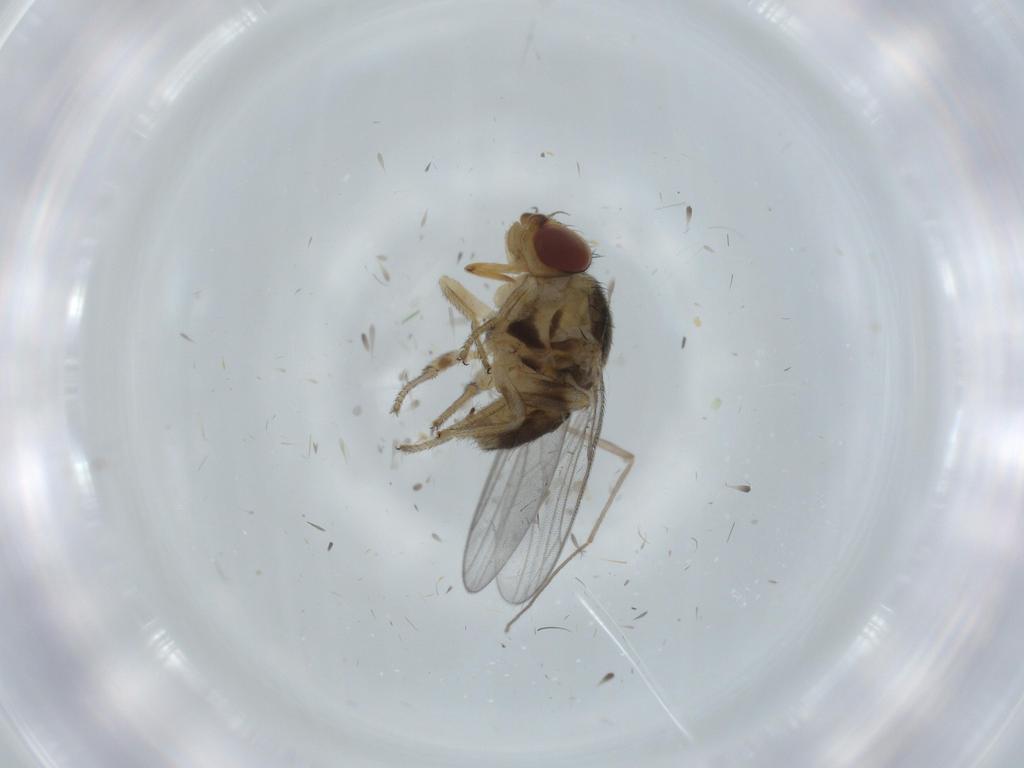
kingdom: Animalia
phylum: Arthropoda
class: Insecta
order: Diptera
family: Chloropidae
